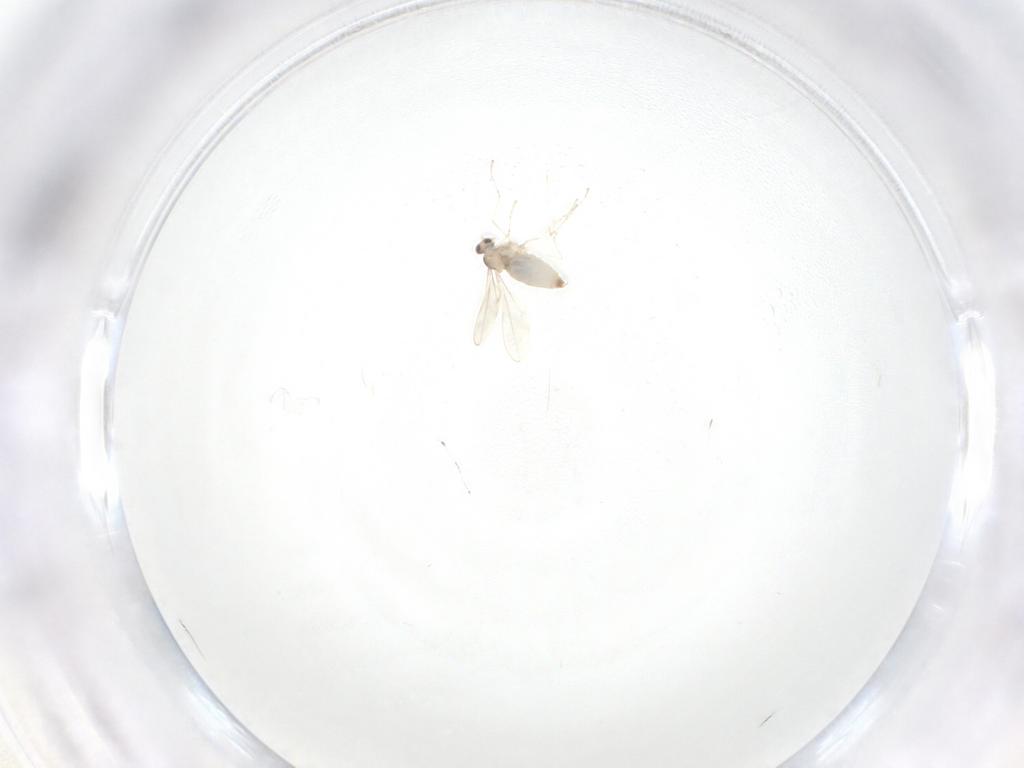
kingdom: Animalia
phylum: Arthropoda
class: Insecta
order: Diptera
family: Cecidomyiidae
